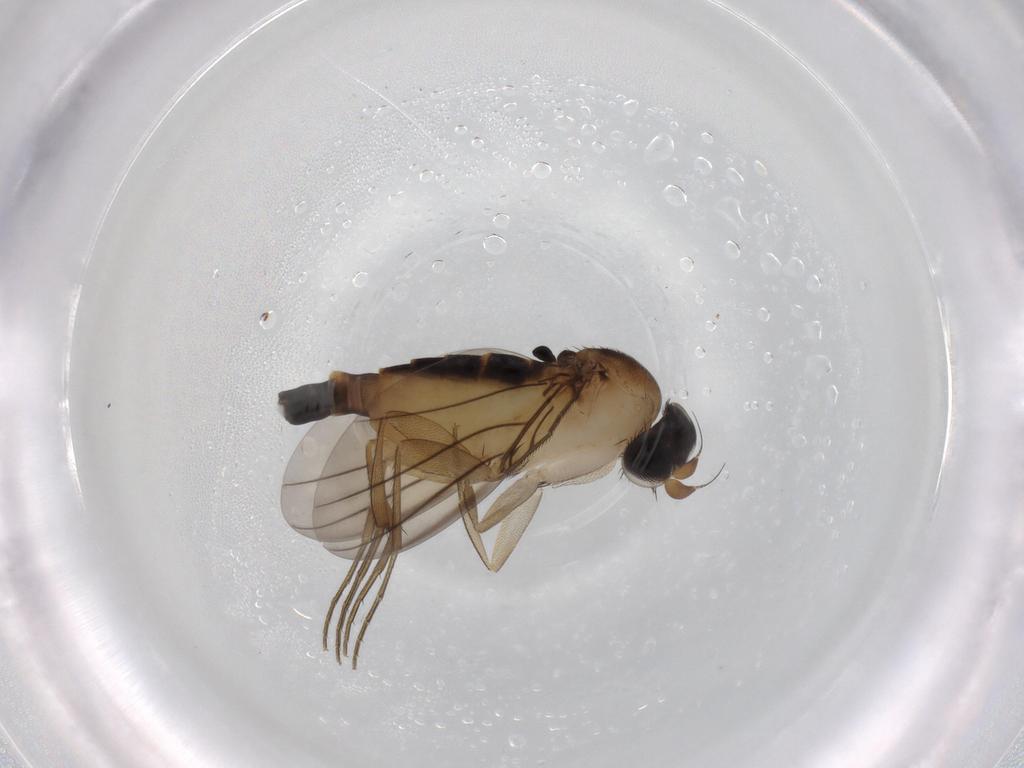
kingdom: Animalia
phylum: Arthropoda
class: Insecta
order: Diptera
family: Phoridae
